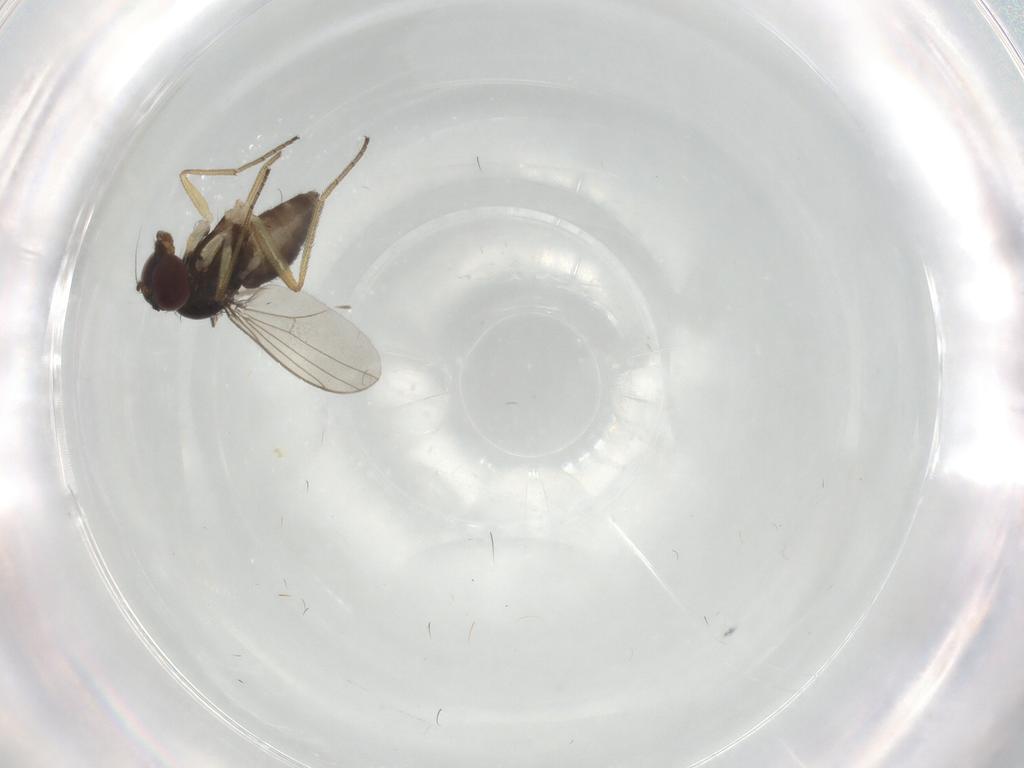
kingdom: Animalia
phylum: Arthropoda
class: Insecta
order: Diptera
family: Dolichopodidae
